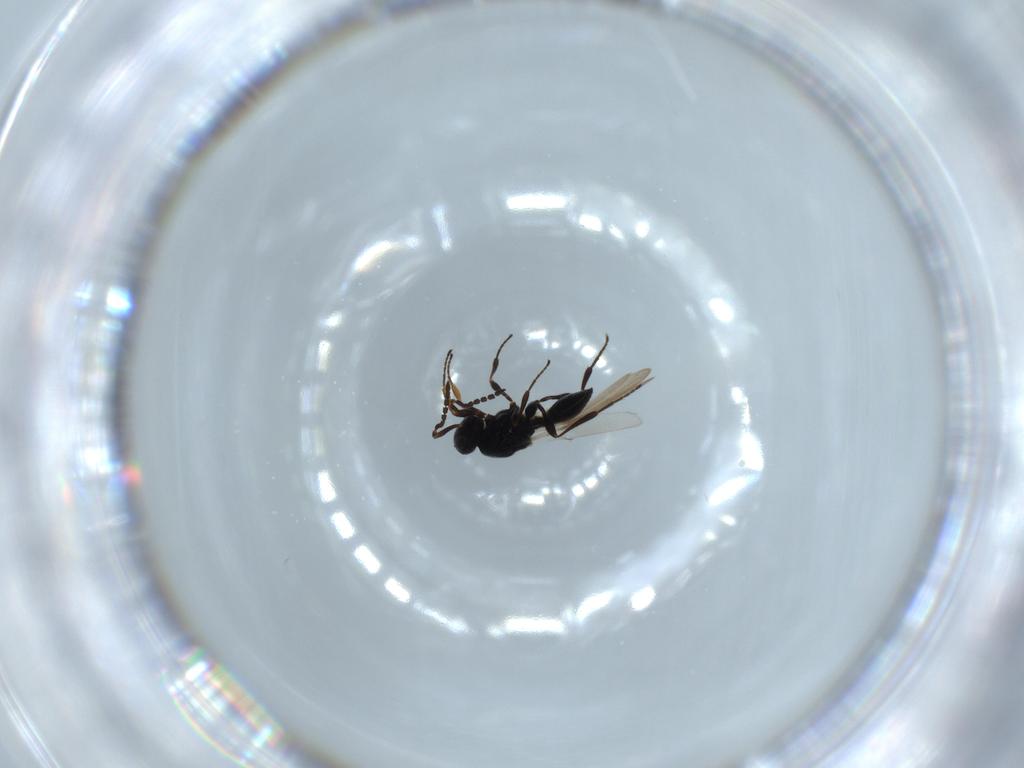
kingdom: Animalia
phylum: Arthropoda
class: Insecta
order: Hymenoptera
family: Platygastridae
